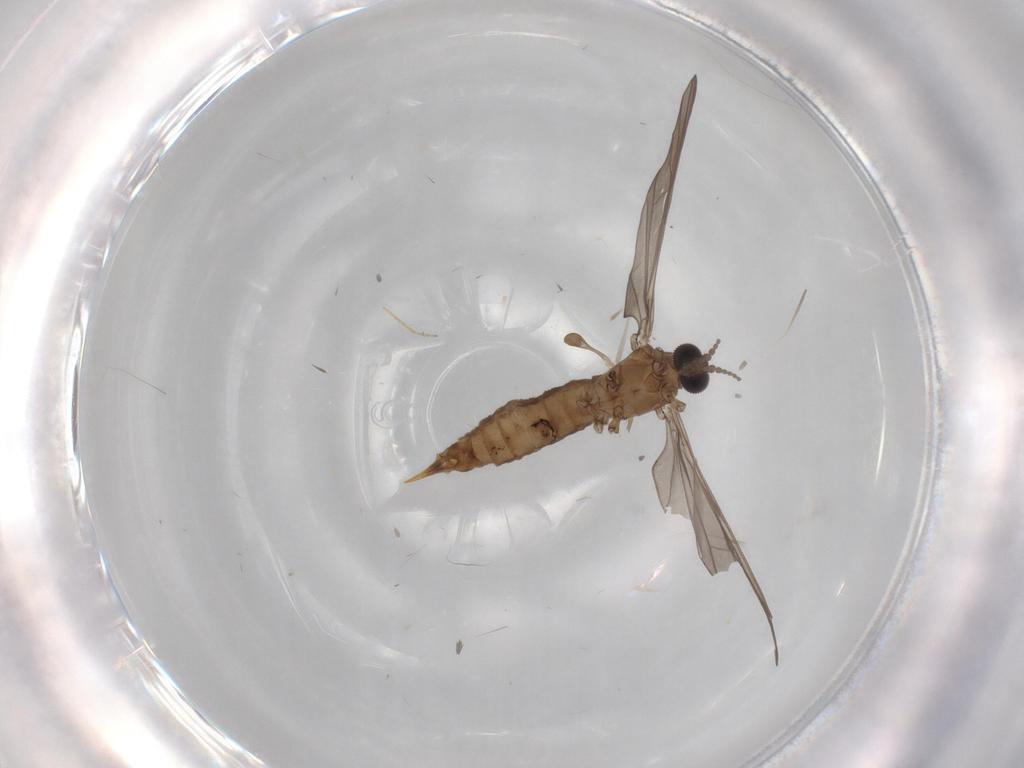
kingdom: Animalia
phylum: Arthropoda
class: Insecta
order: Diptera
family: Limoniidae
